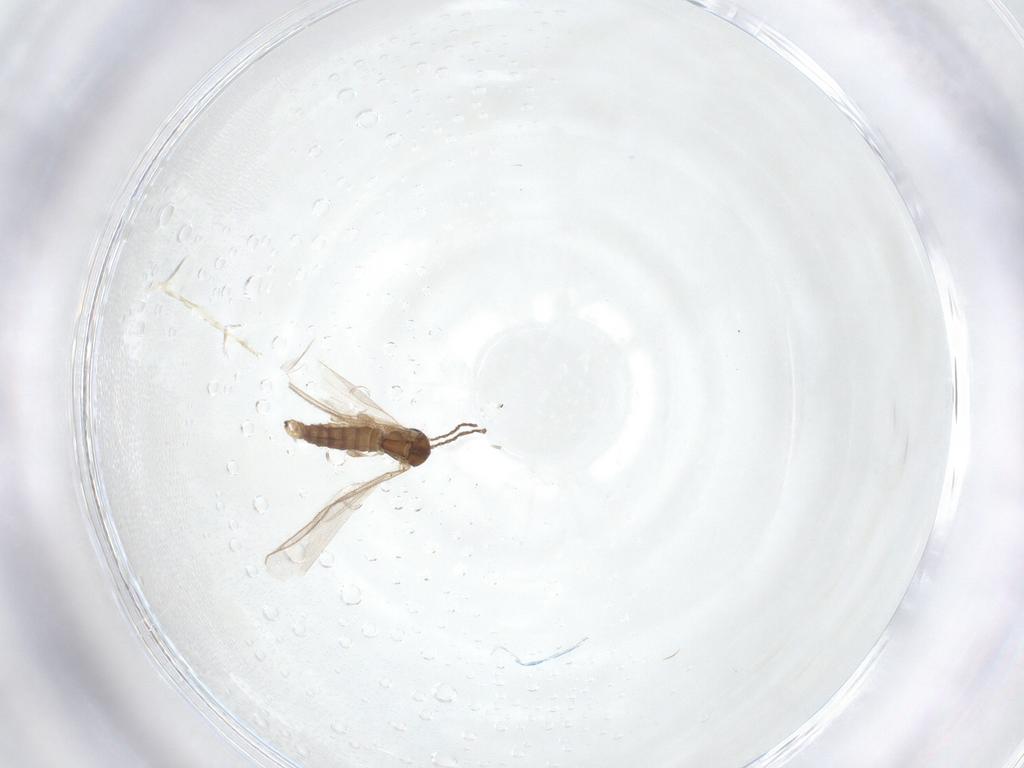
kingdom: Animalia
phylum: Arthropoda
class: Insecta
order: Diptera
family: Sciaridae
